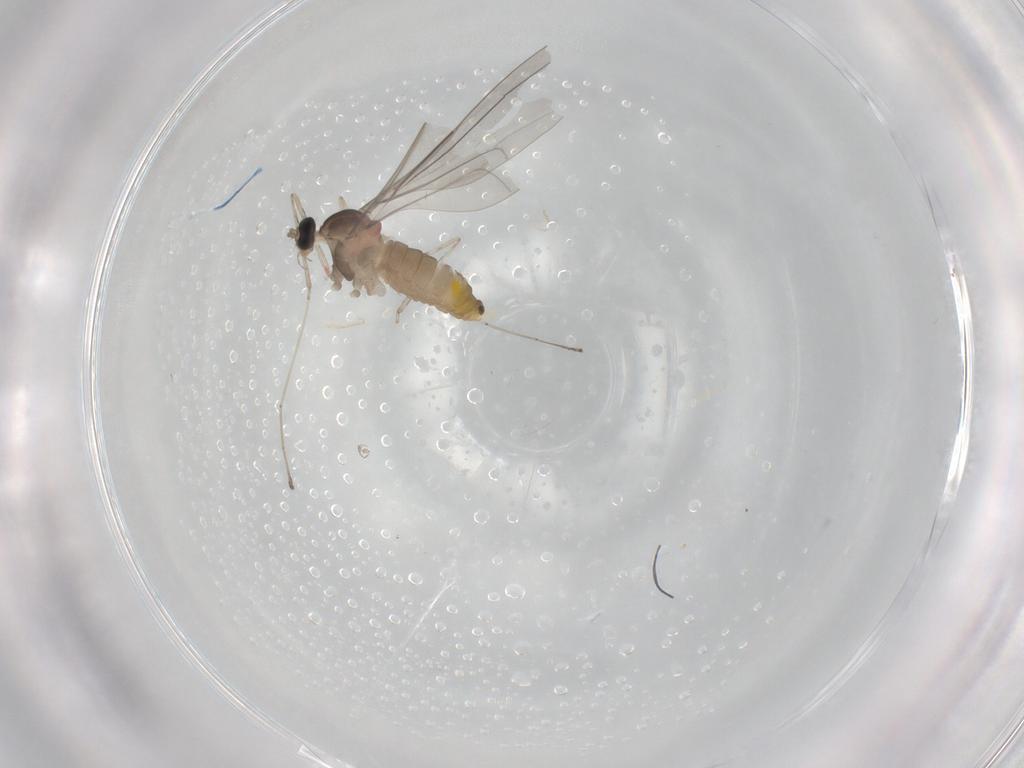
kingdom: Animalia
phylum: Arthropoda
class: Insecta
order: Diptera
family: Cecidomyiidae
